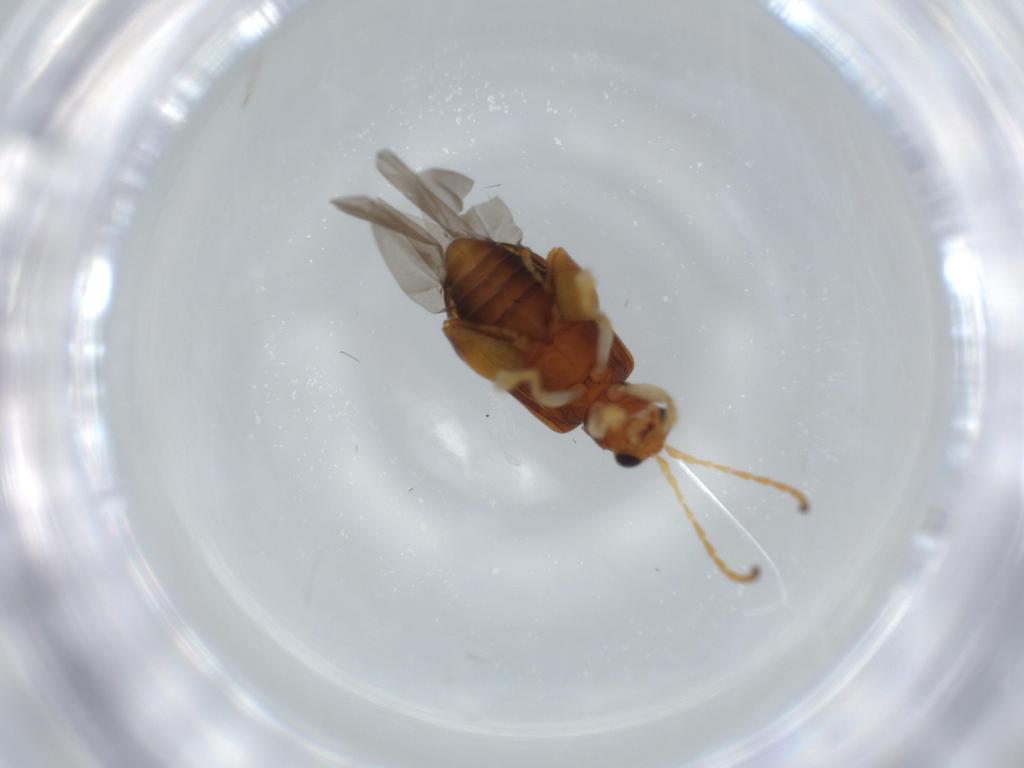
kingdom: Animalia
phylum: Arthropoda
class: Insecta
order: Coleoptera
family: Chrysomelidae
